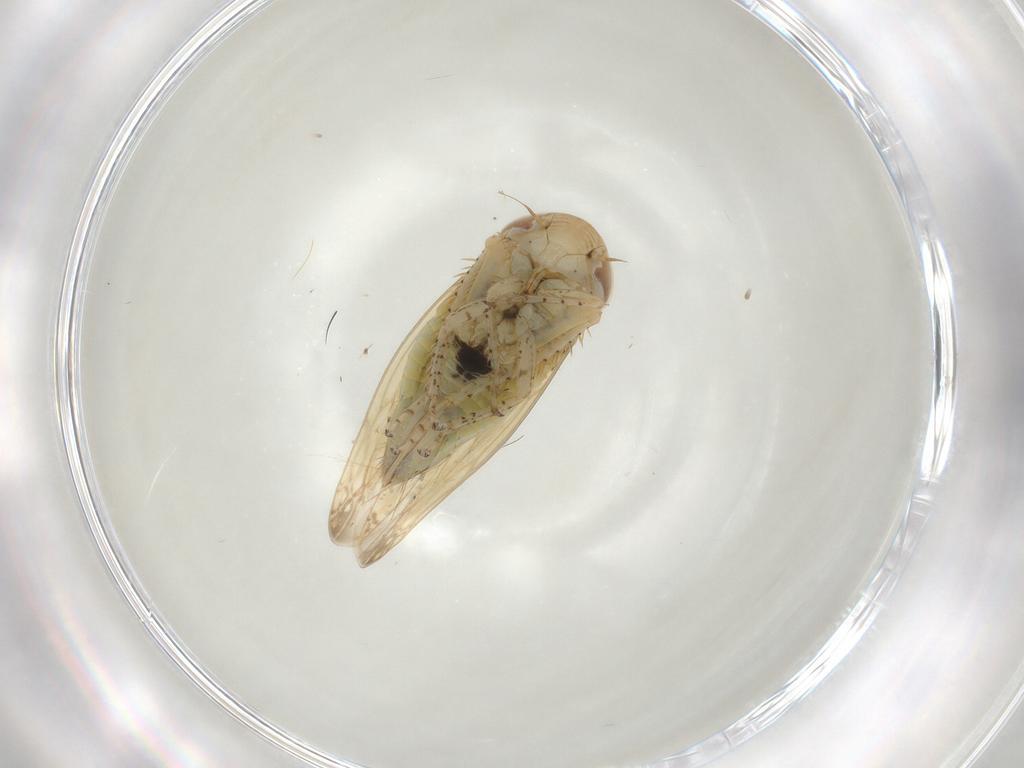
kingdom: Animalia
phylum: Arthropoda
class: Insecta
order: Hemiptera
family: Cicadellidae
